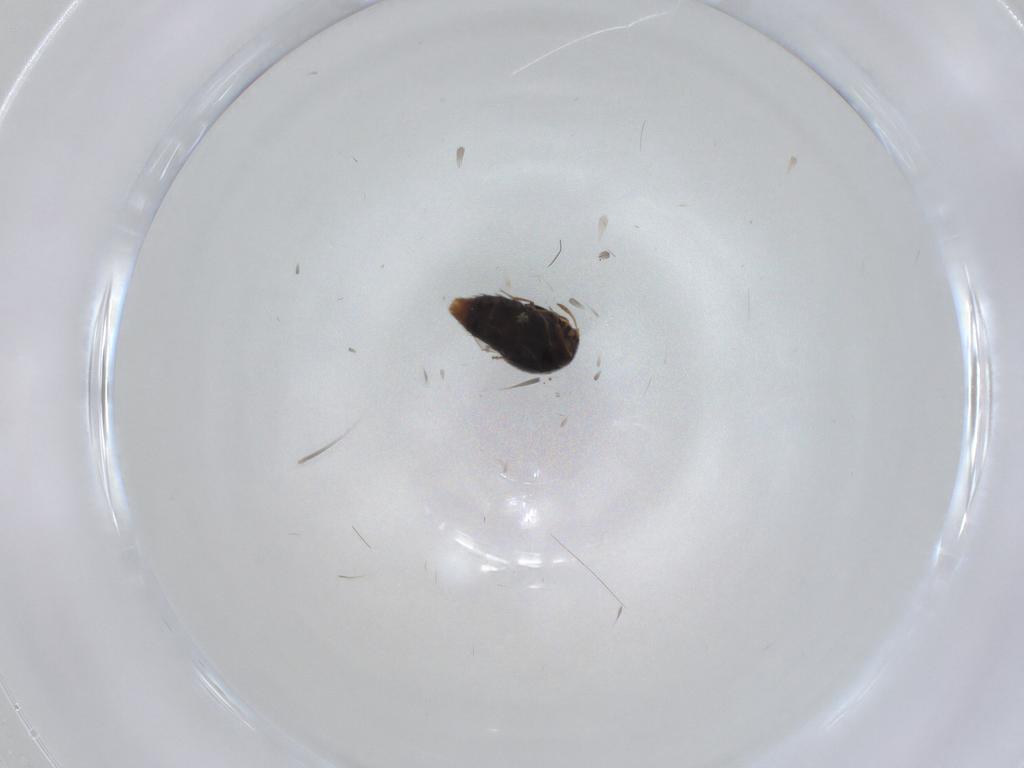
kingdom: Animalia
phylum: Arthropoda
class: Insecta
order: Coleoptera
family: Staphylinidae
